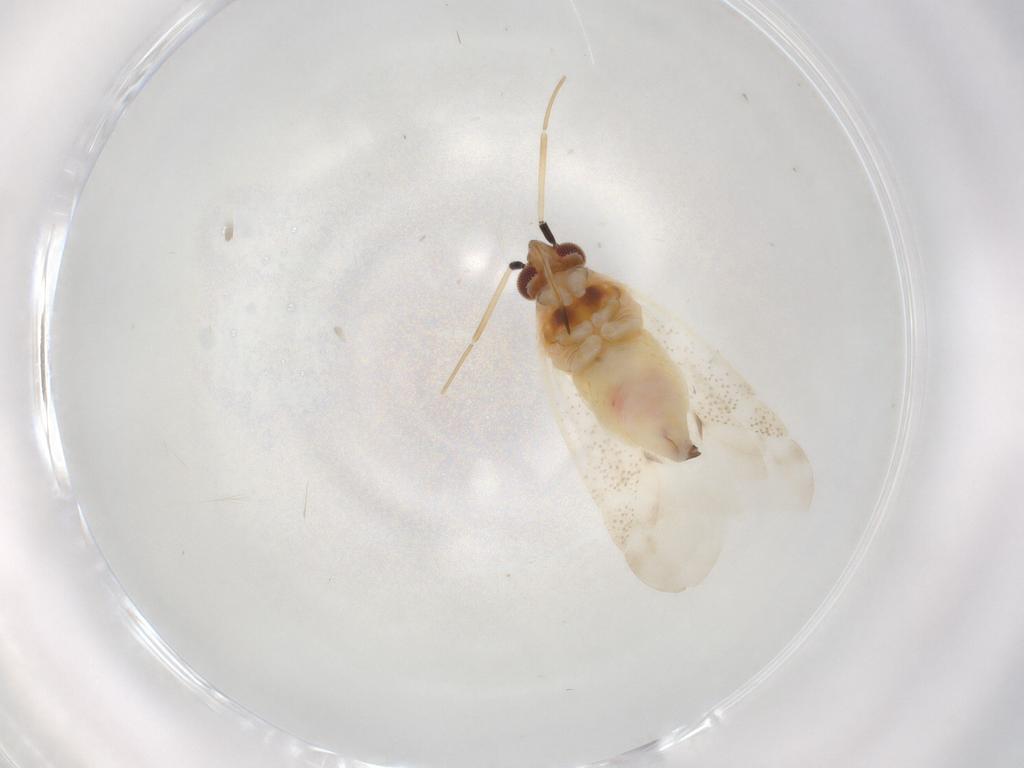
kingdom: Animalia
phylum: Arthropoda
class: Insecta
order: Hemiptera
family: Miridae
